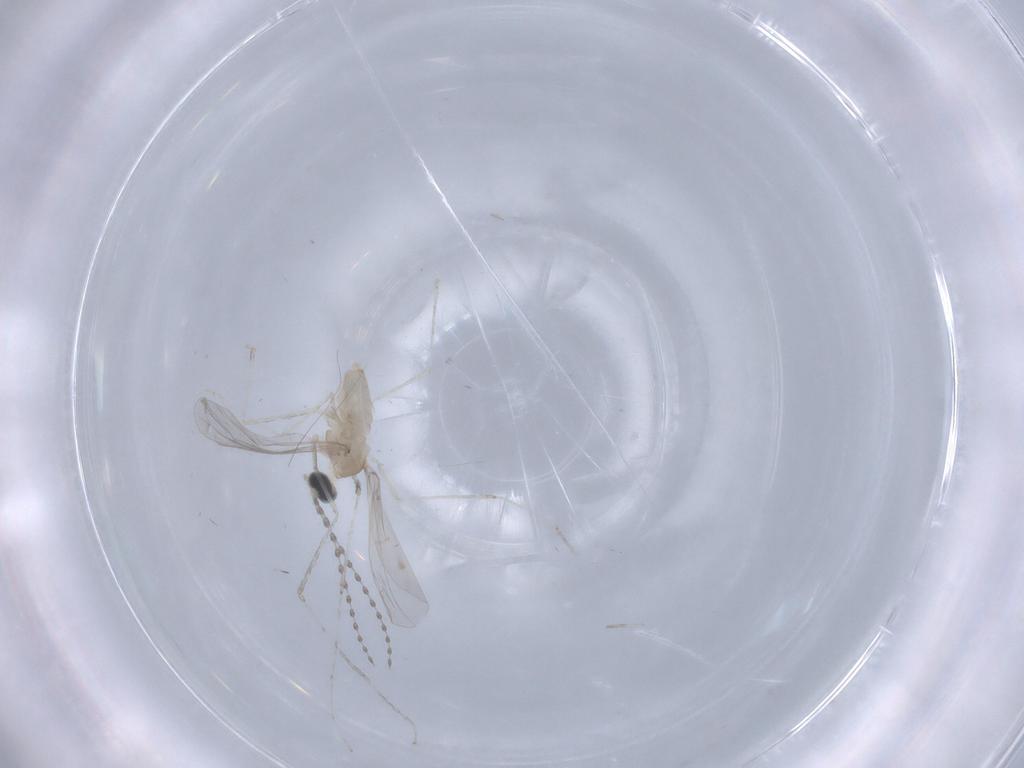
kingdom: Animalia
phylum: Arthropoda
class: Insecta
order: Diptera
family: Cecidomyiidae
